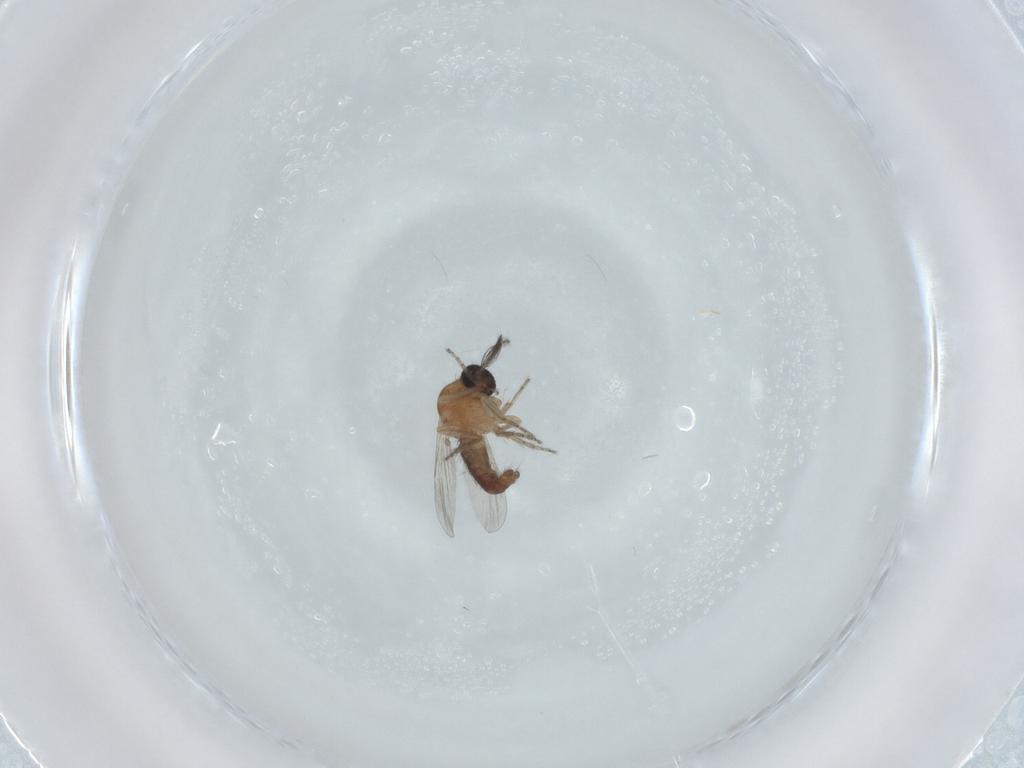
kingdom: Animalia
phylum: Arthropoda
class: Insecta
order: Diptera
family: Ceratopogonidae
